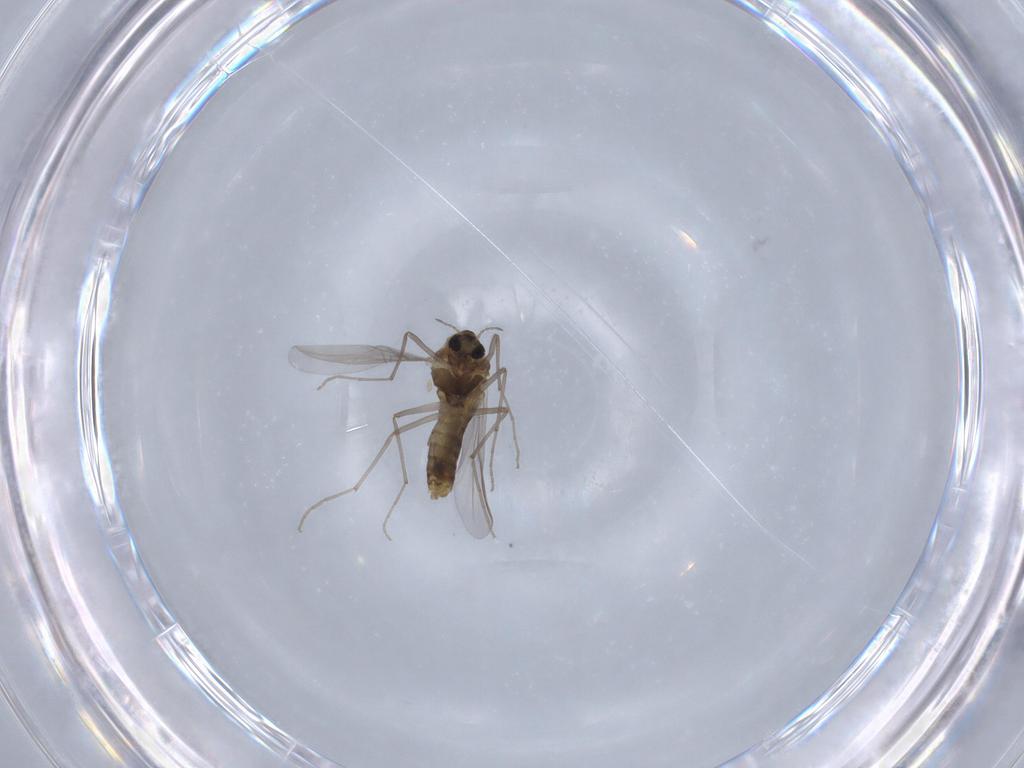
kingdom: Animalia
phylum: Arthropoda
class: Insecta
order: Diptera
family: Chironomidae
